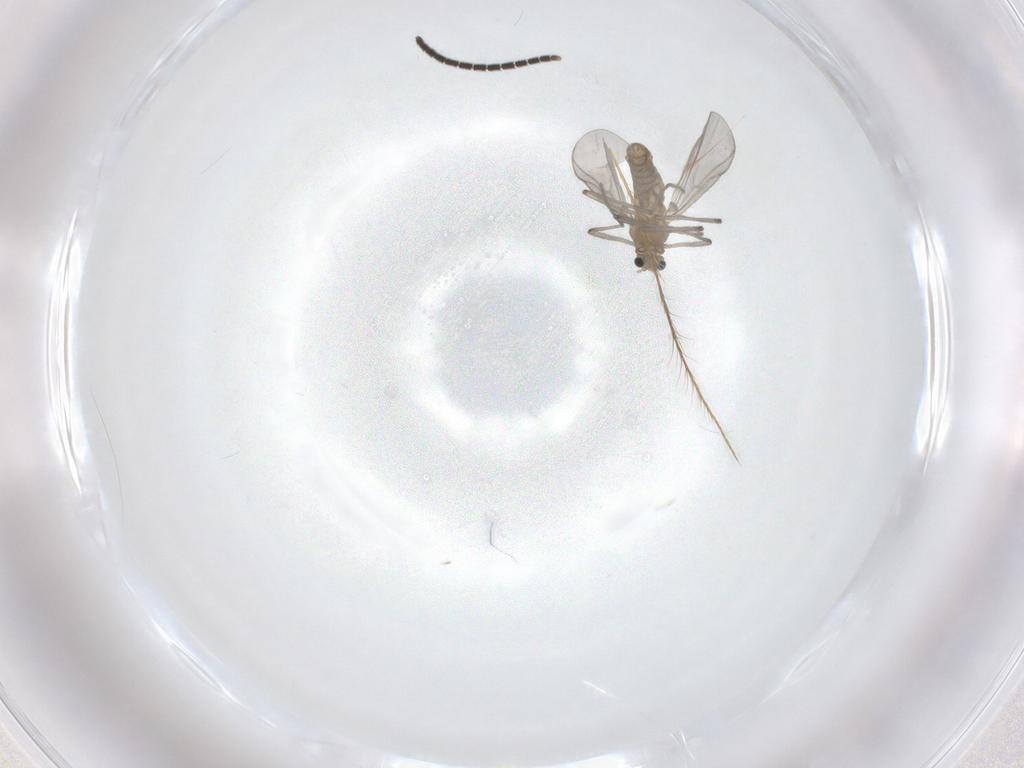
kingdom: Animalia
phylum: Arthropoda
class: Insecta
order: Diptera
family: Chironomidae
